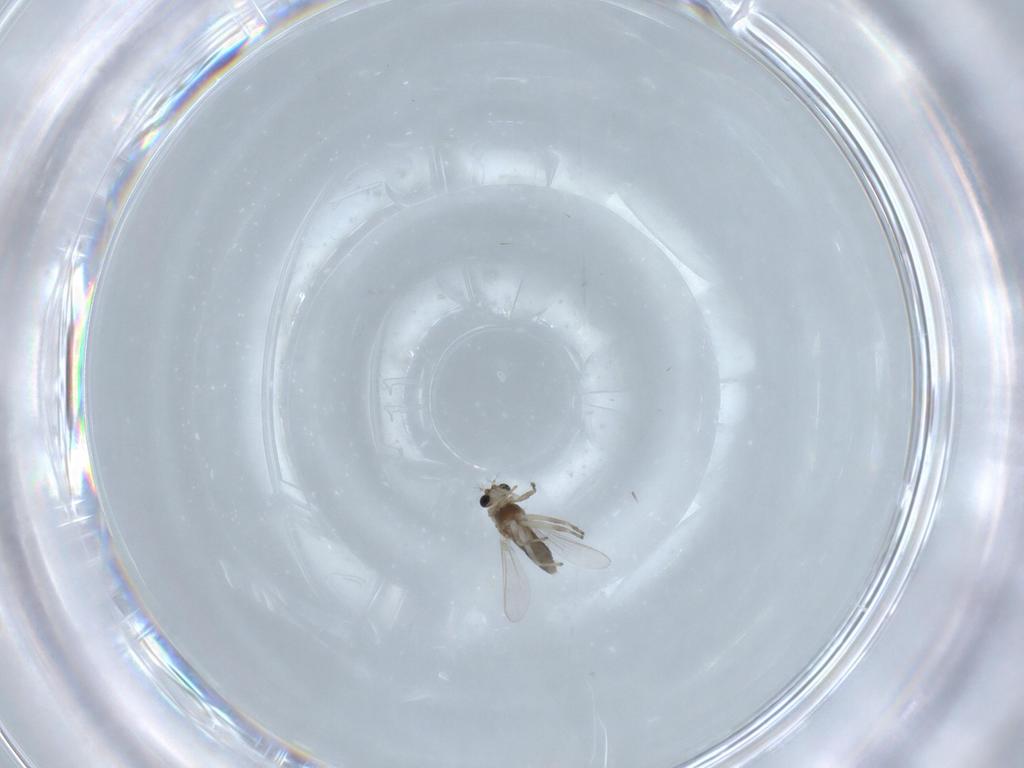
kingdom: Animalia
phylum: Arthropoda
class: Insecta
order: Diptera
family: Chironomidae
